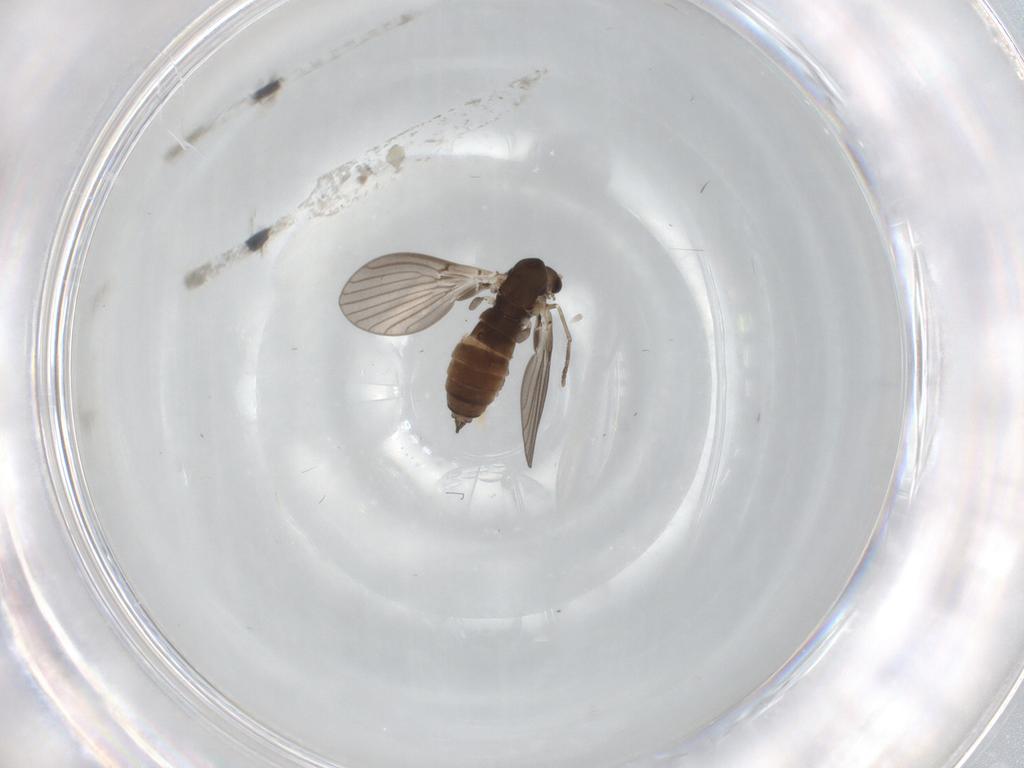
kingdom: Animalia
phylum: Arthropoda
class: Insecta
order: Diptera
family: Psychodidae
